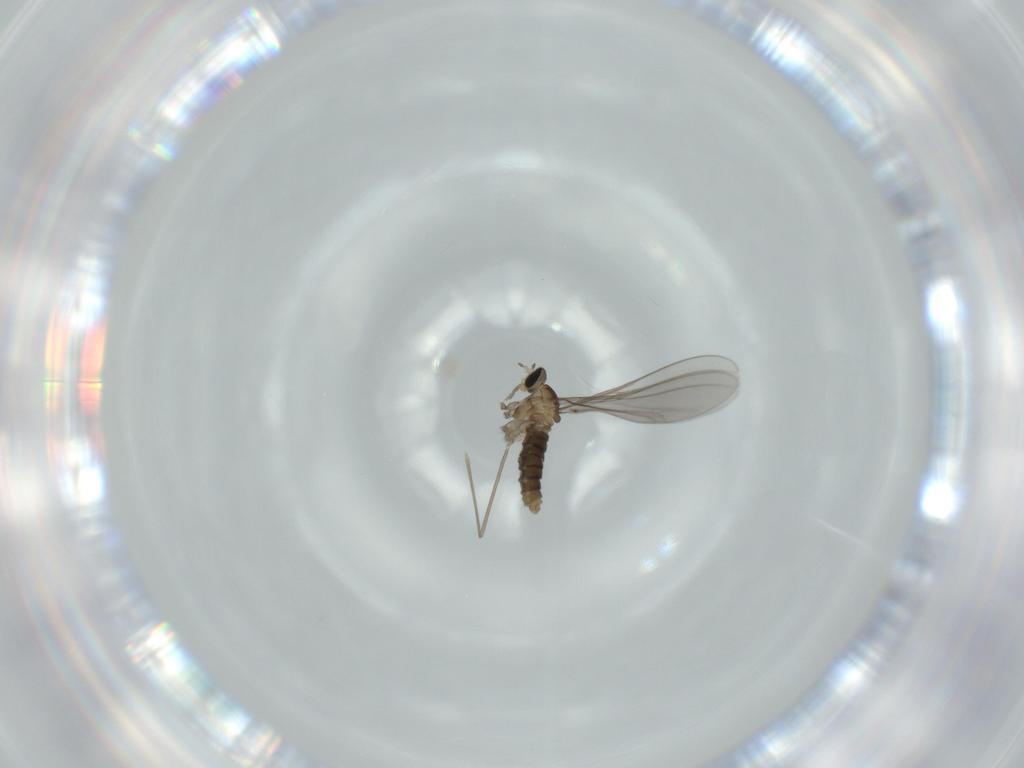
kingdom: Animalia
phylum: Arthropoda
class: Insecta
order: Diptera
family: Cecidomyiidae
